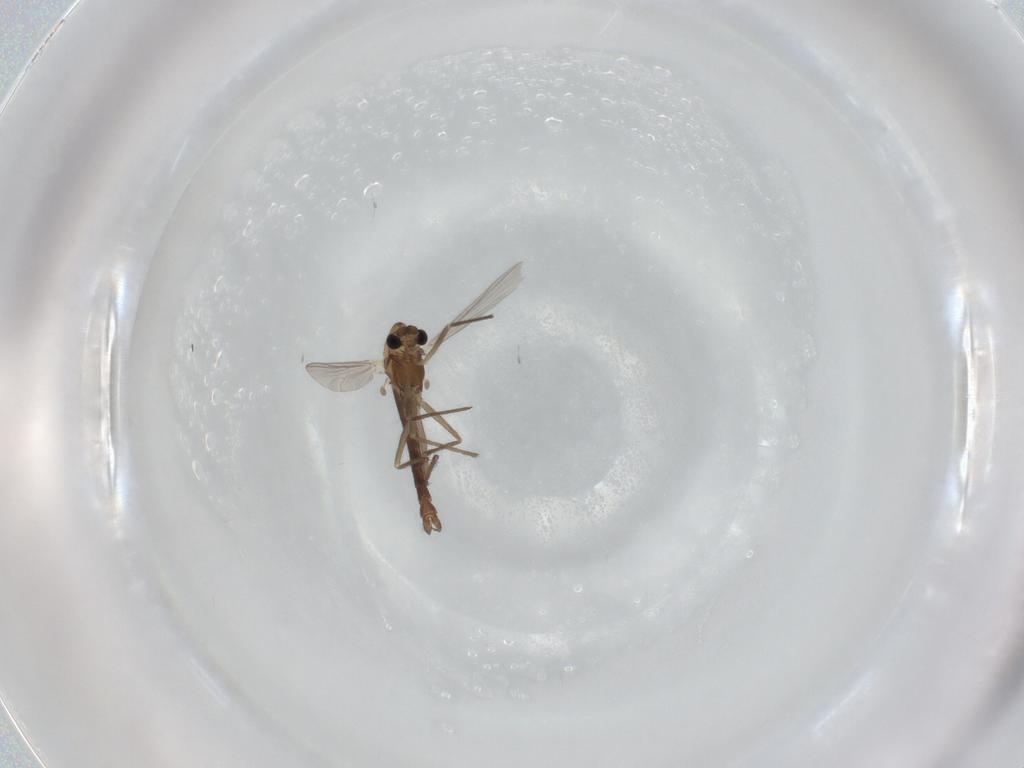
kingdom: Animalia
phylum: Arthropoda
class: Insecta
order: Diptera
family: Chironomidae
